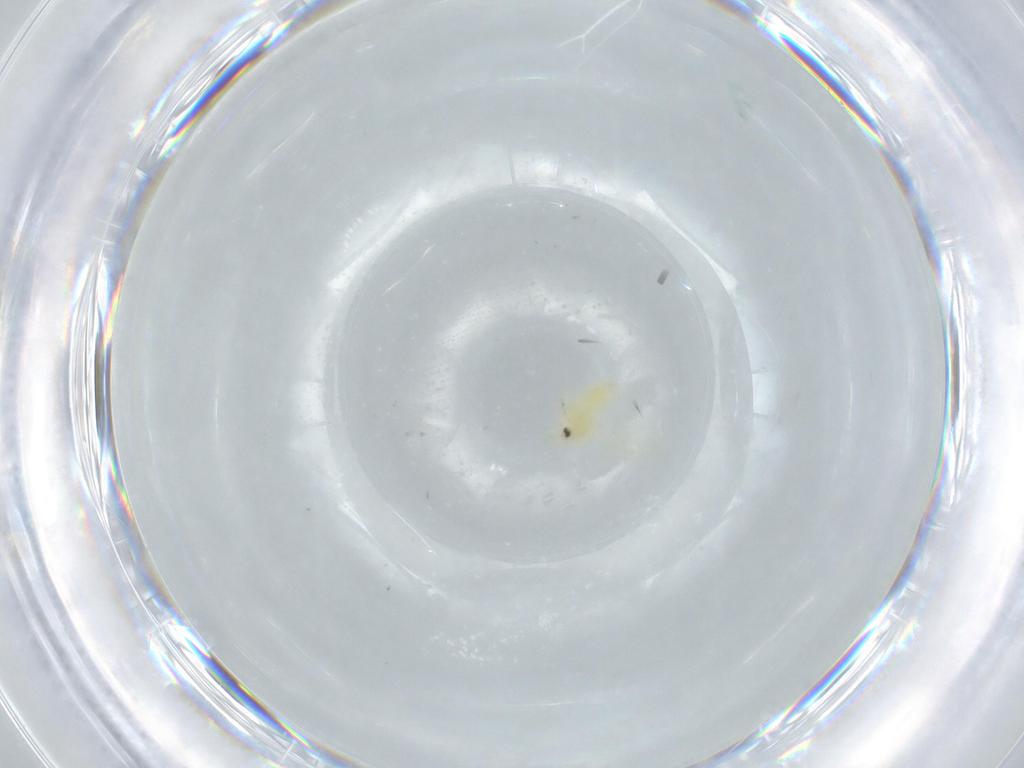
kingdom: Animalia
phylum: Arthropoda
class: Insecta
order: Hemiptera
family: Aleyrodidae
